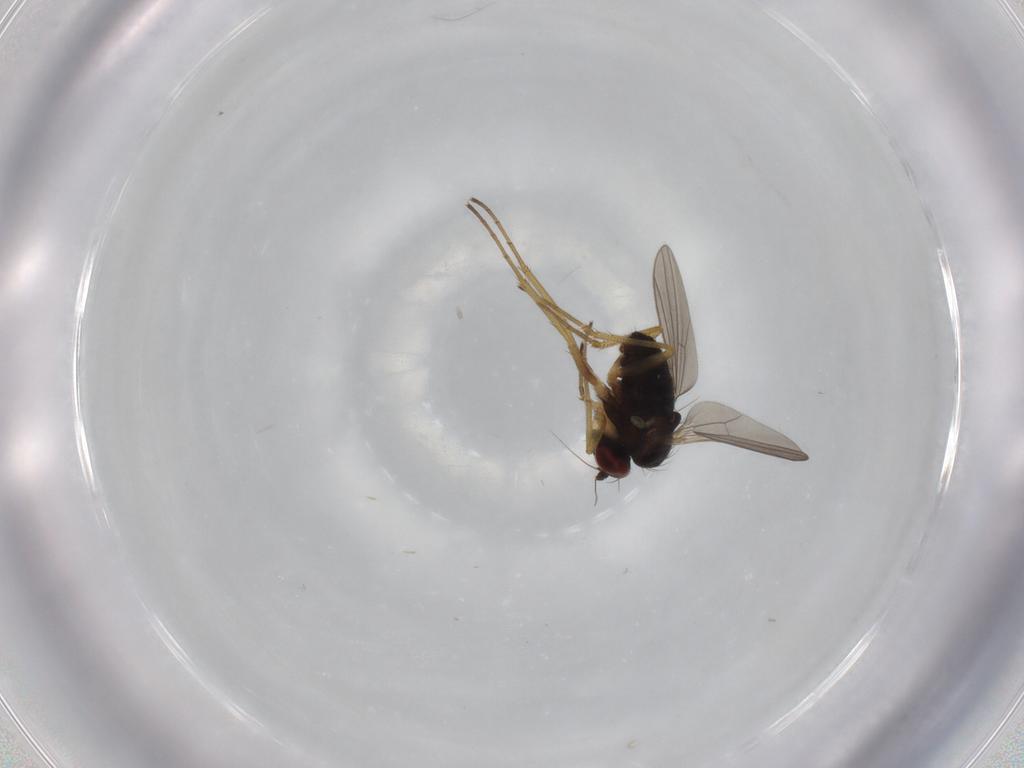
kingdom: Animalia
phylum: Arthropoda
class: Insecta
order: Diptera
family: Dolichopodidae
